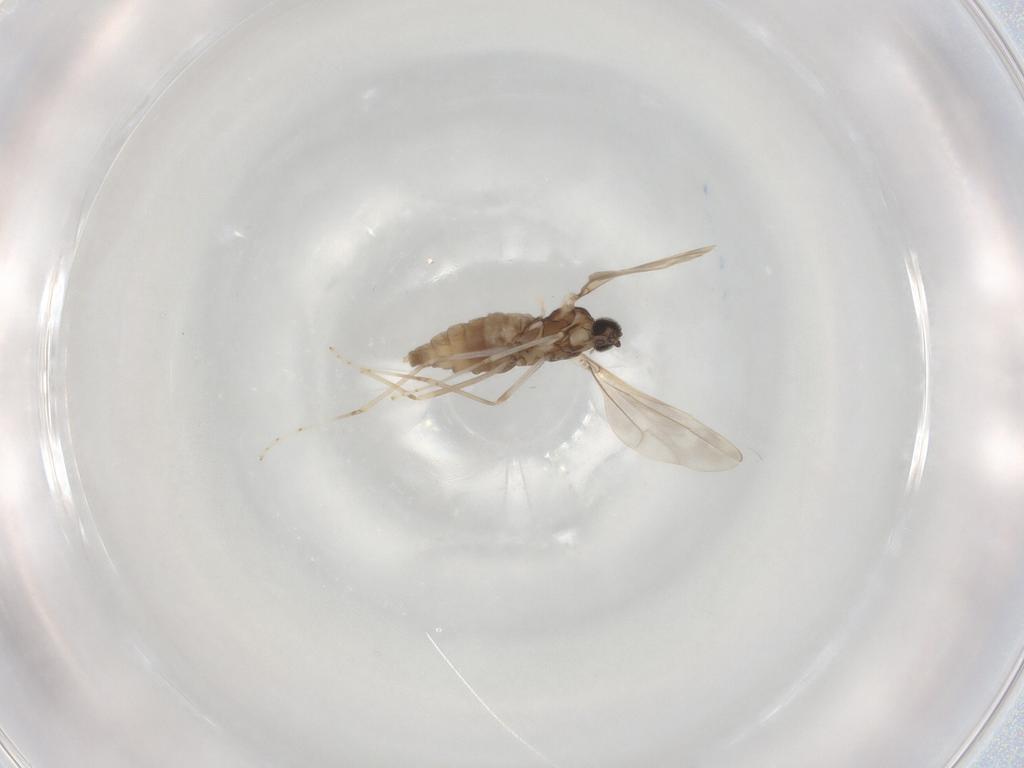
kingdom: Animalia
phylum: Arthropoda
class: Insecta
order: Diptera
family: Cecidomyiidae
